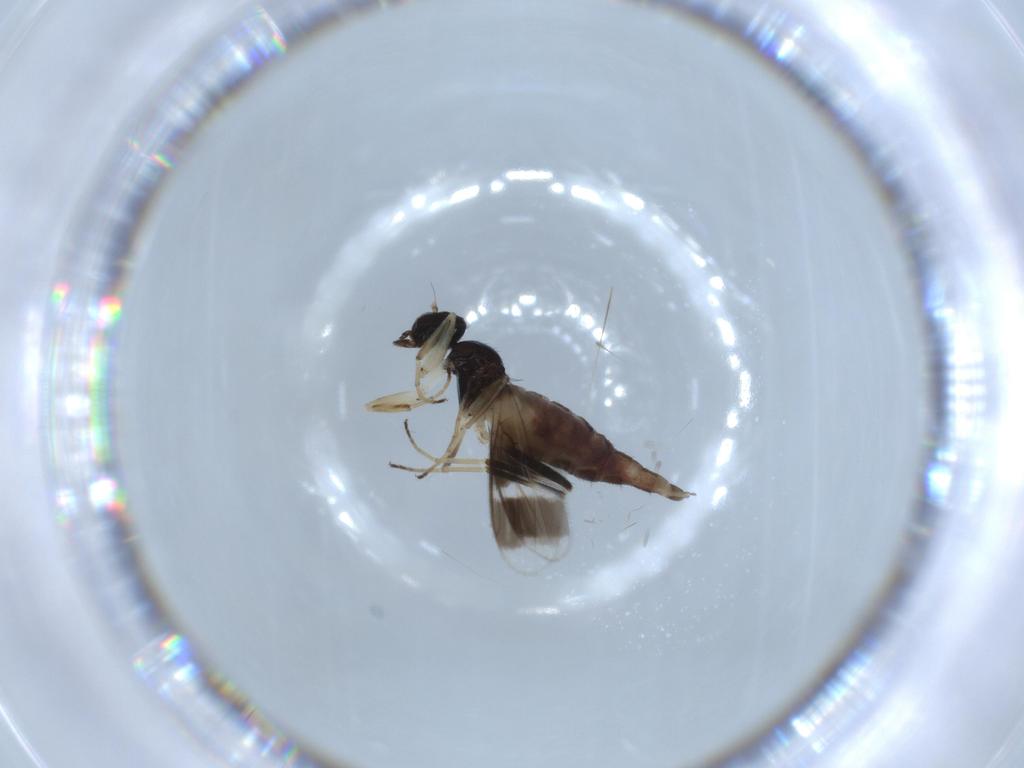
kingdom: Animalia
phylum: Arthropoda
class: Insecta
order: Diptera
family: Hybotidae
